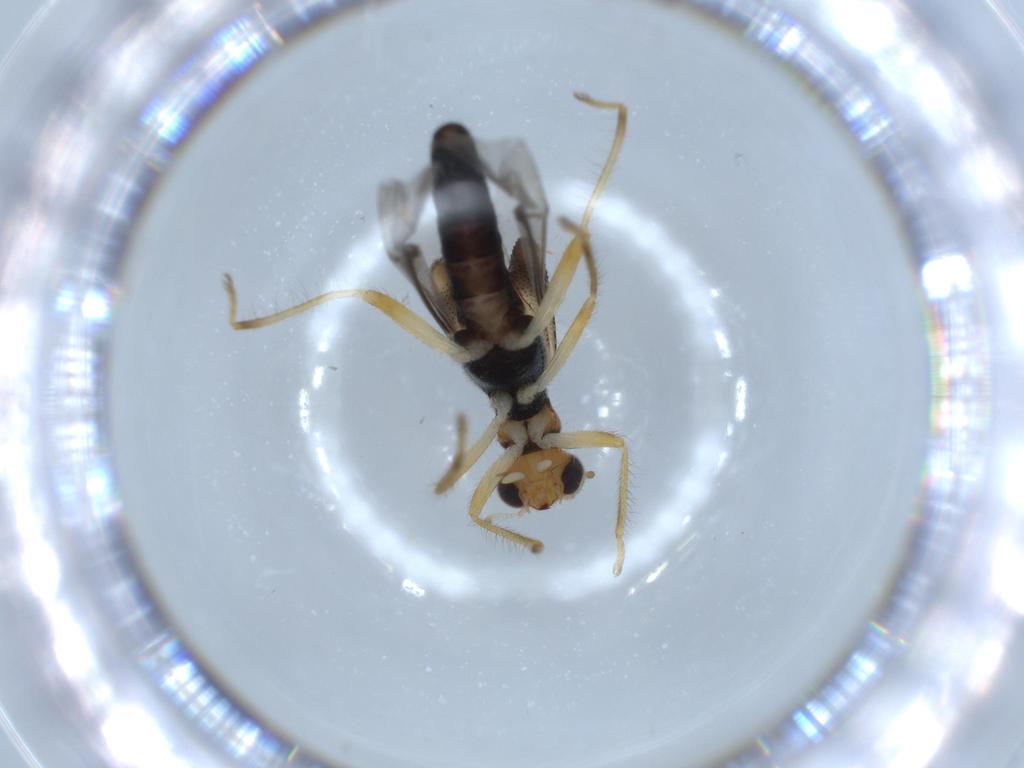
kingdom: Animalia
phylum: Arthropoda
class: Insecta
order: Coleoptera
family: Cleridae
